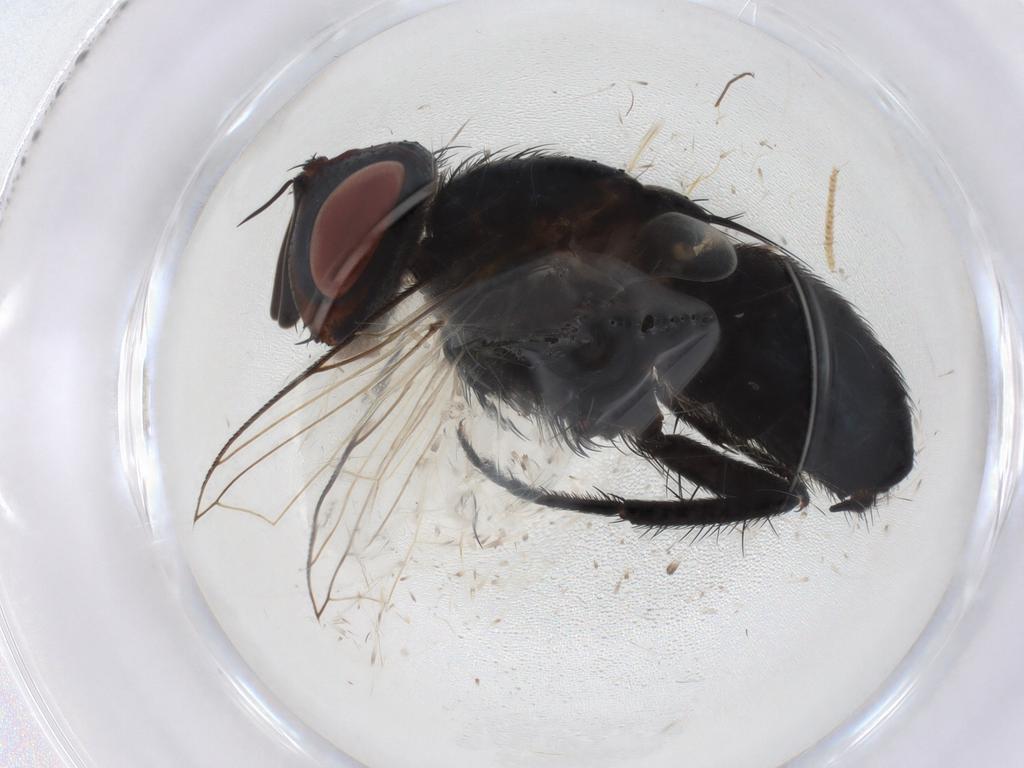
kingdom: Animalia
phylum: Arthropoda
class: Insecta
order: Diptera
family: Tachinidae
